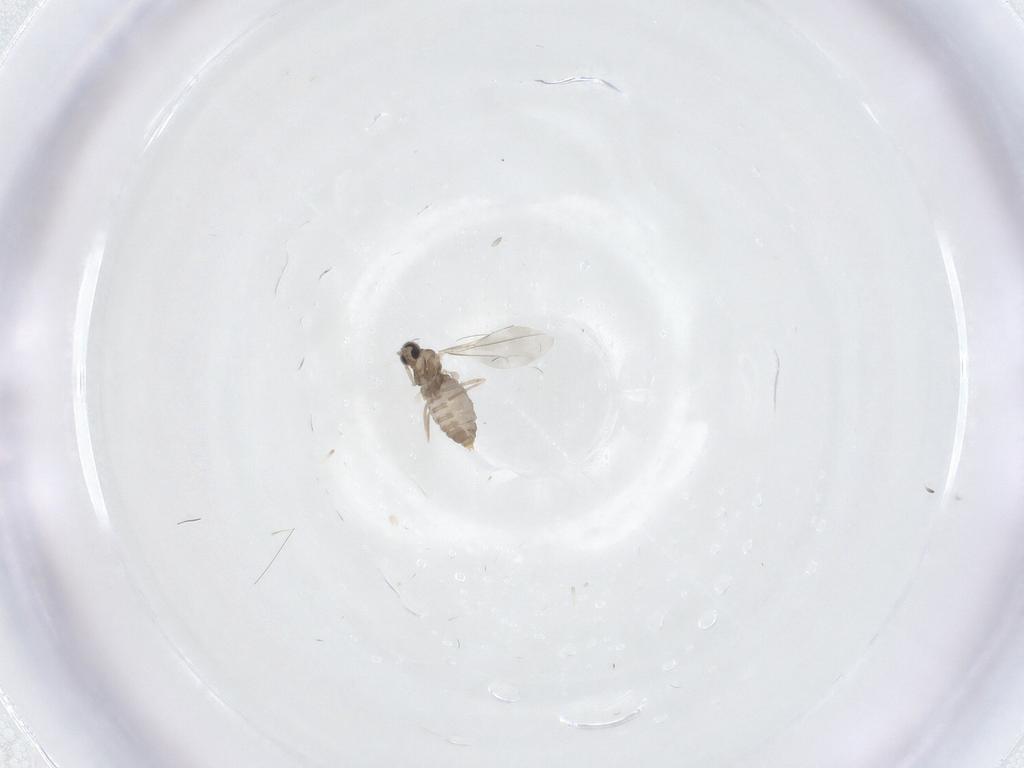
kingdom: Animalia
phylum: Arthropoda
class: Insecta
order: Diptera
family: Cecidomyiidae
